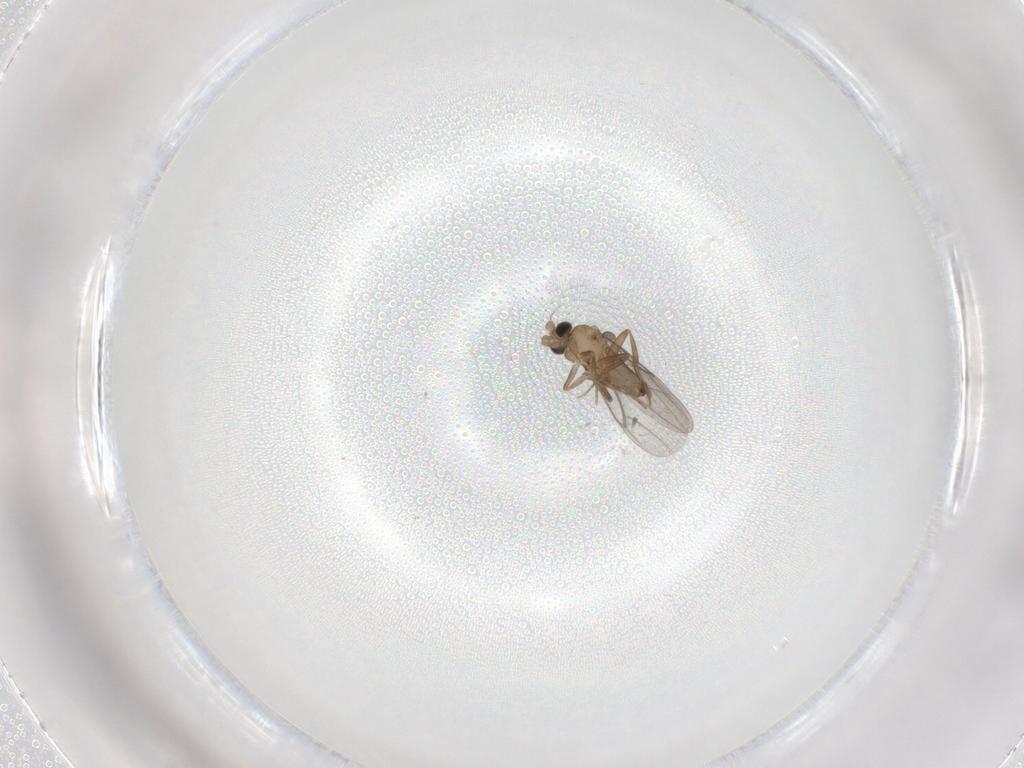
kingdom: Animalia
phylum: Arthropoda
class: Insecta
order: Diptera
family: Phoridae
